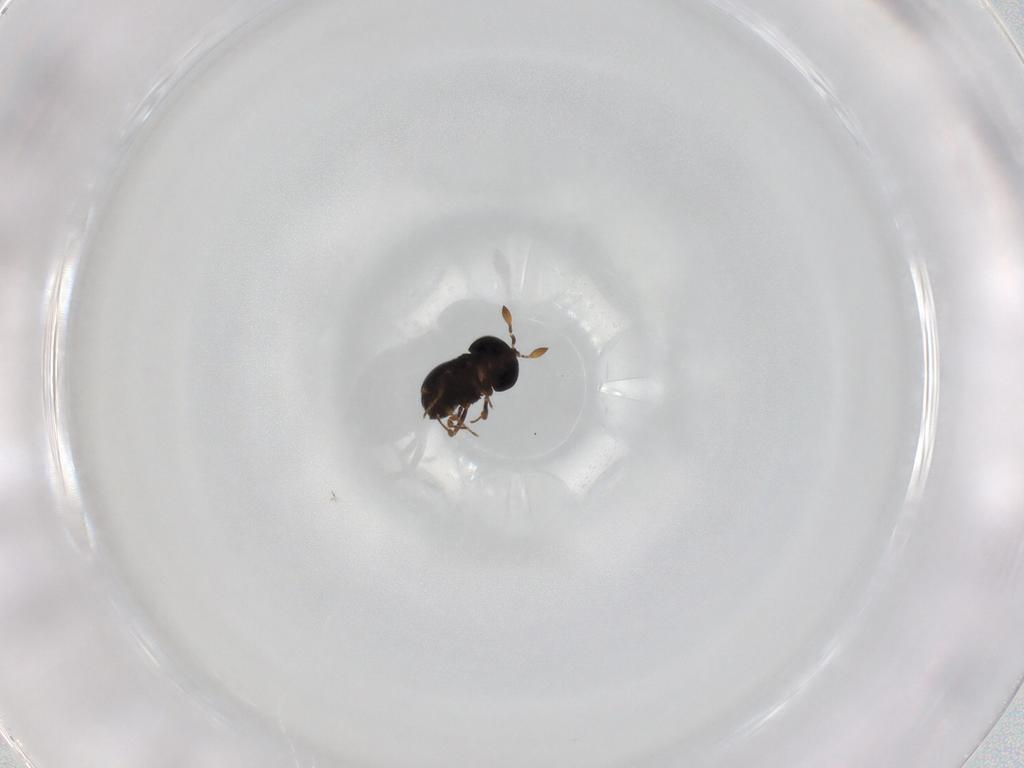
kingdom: Animalia
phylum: Arthropoda
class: Insecta
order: Hymenoptera
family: Scelionidae
